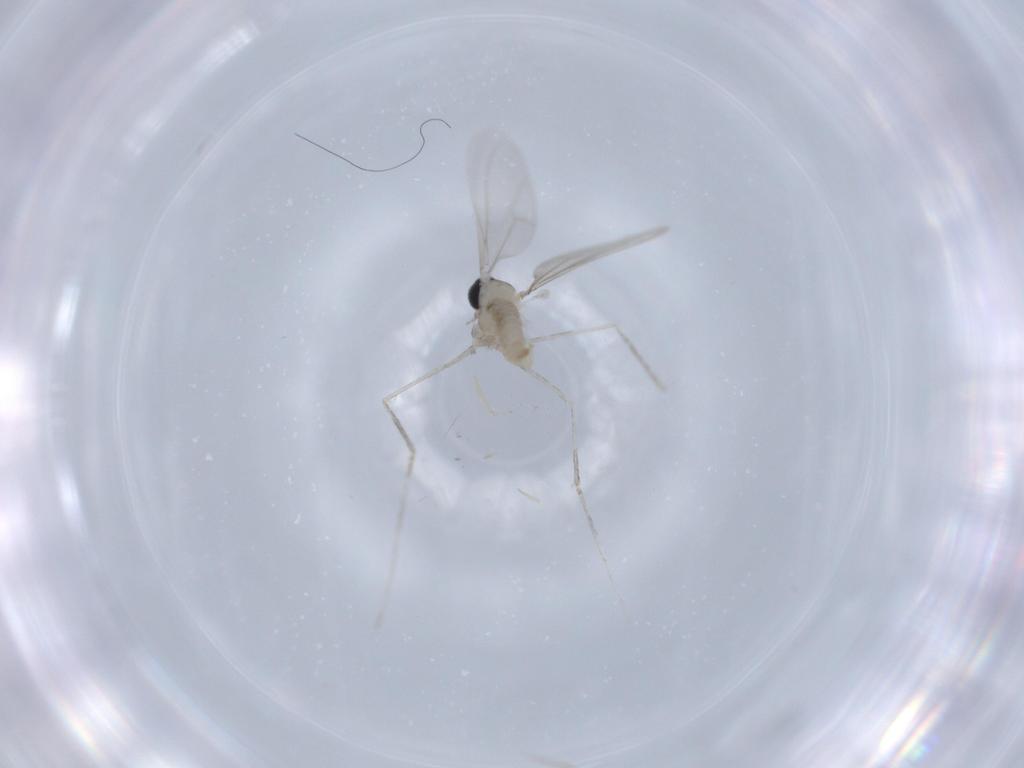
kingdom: Animalia
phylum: Arthropoda
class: Insecta
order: Diptera
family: Cecidomyiidae
